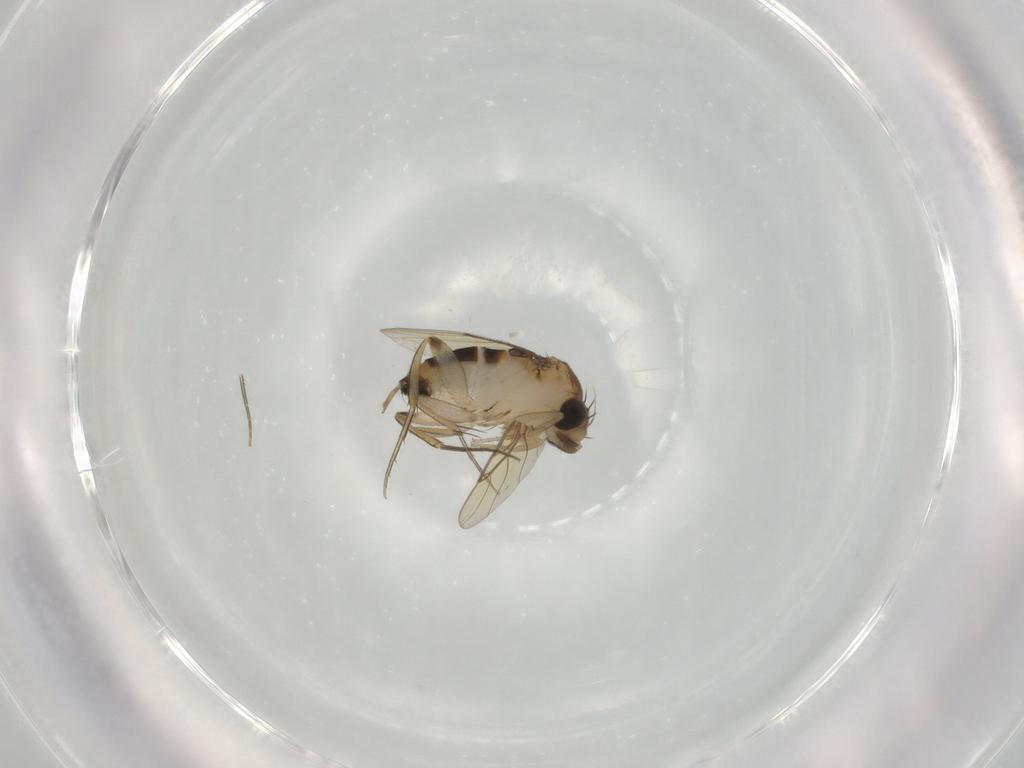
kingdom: Animalia
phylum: Arthropoda
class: Insecta
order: Diptera
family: Phoridae
